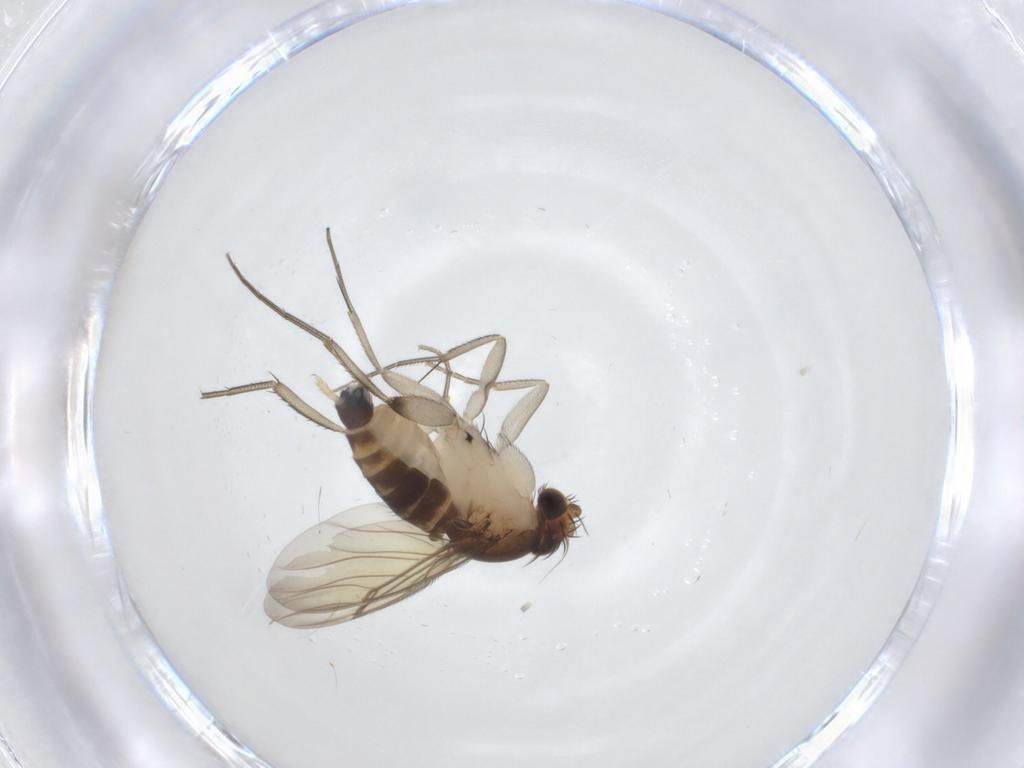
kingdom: Animalia
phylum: Arthropoda
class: Insecta
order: Diptera
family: Phoridae
